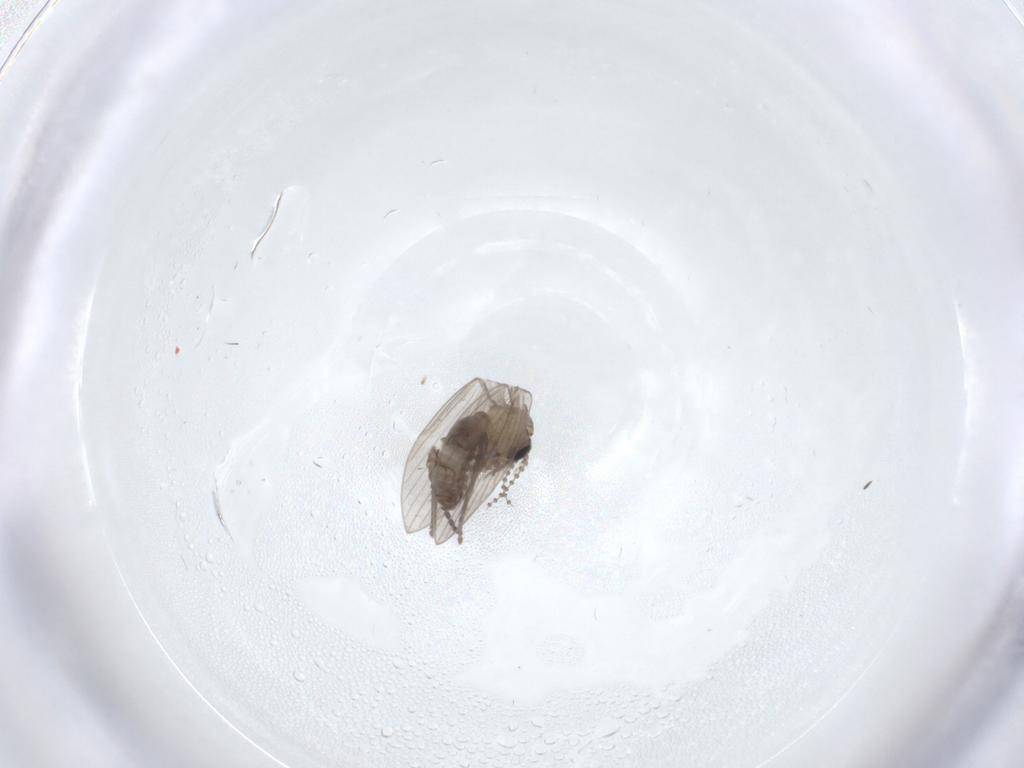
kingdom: Animalia
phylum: Arthropoda
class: Insecta
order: Diptera
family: Psychodidae
